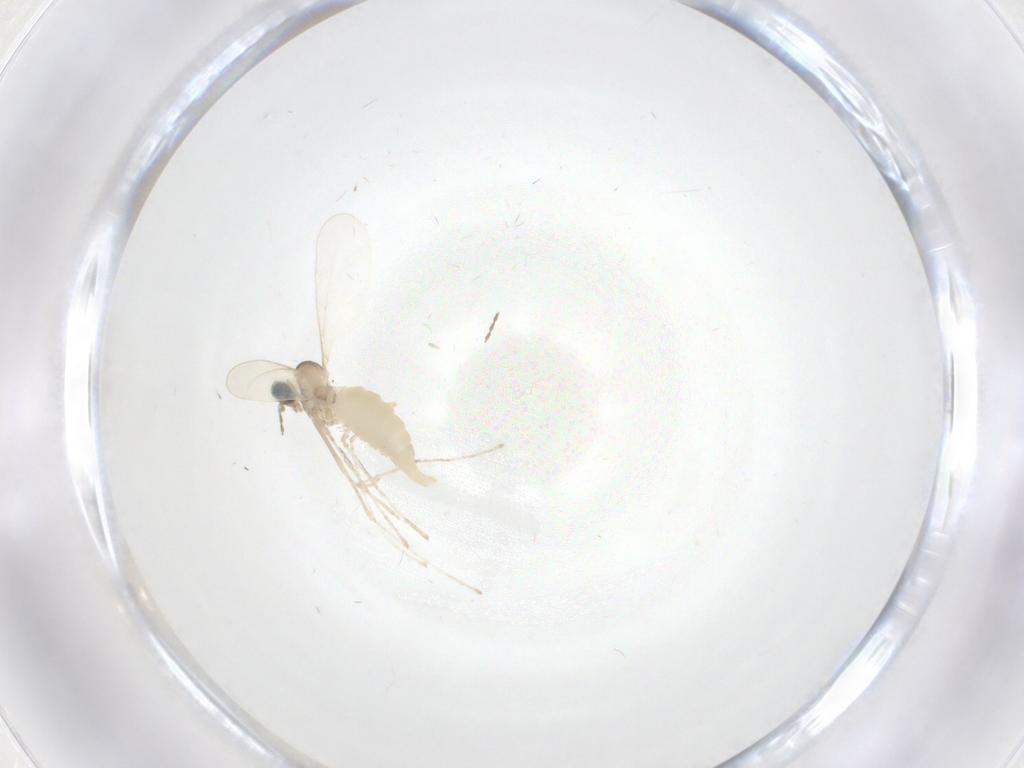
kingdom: Animalia
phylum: Arthropoda
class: Insecta
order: Diptera
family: Cecidomyiidae
